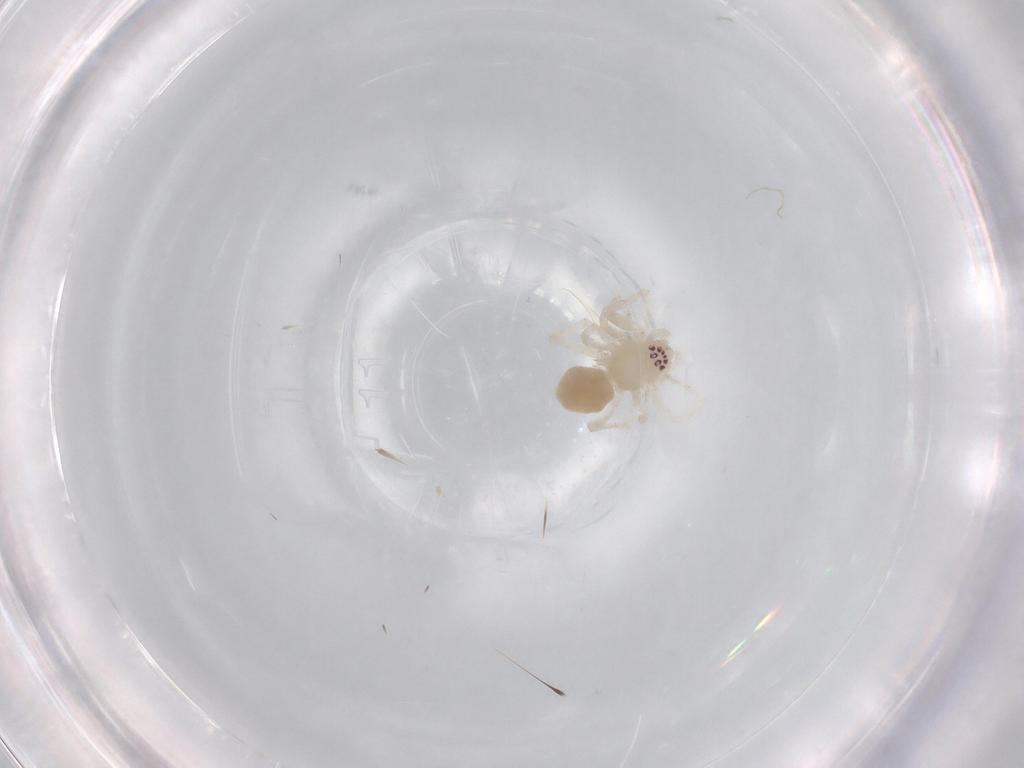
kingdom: Animalia
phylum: Arthropoda
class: Arachnida
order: Araneae
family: Anyphaenidae
